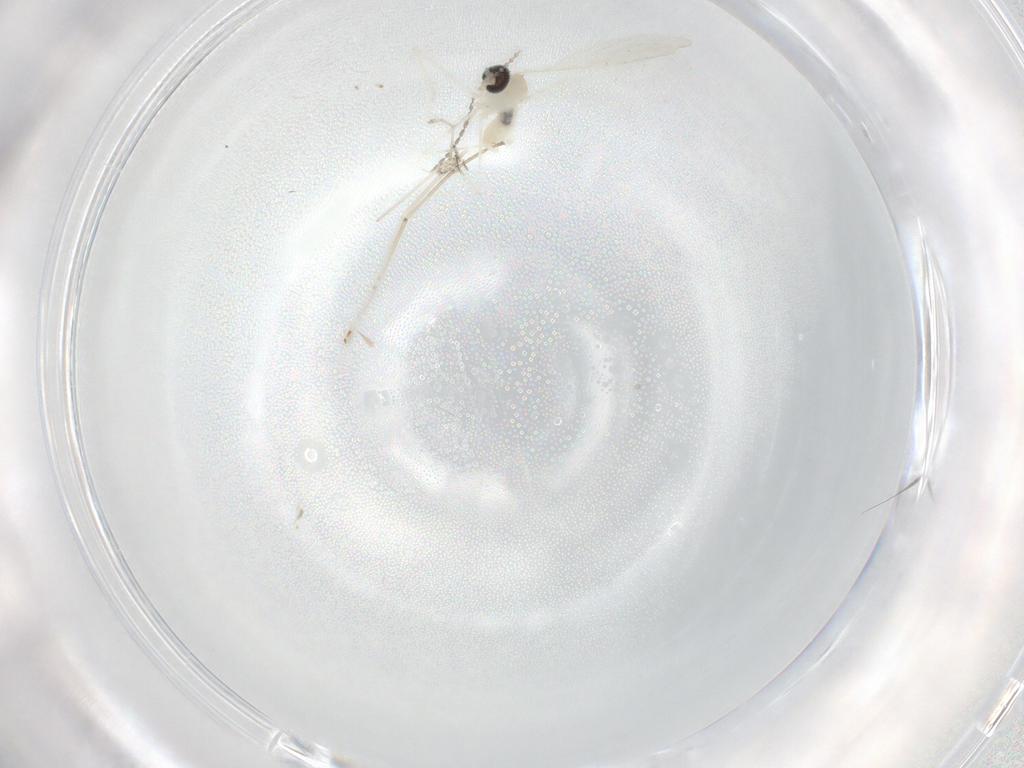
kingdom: Animalia
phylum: Arthropoda
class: Insecta
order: Diptera
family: Cecidomyiidae
